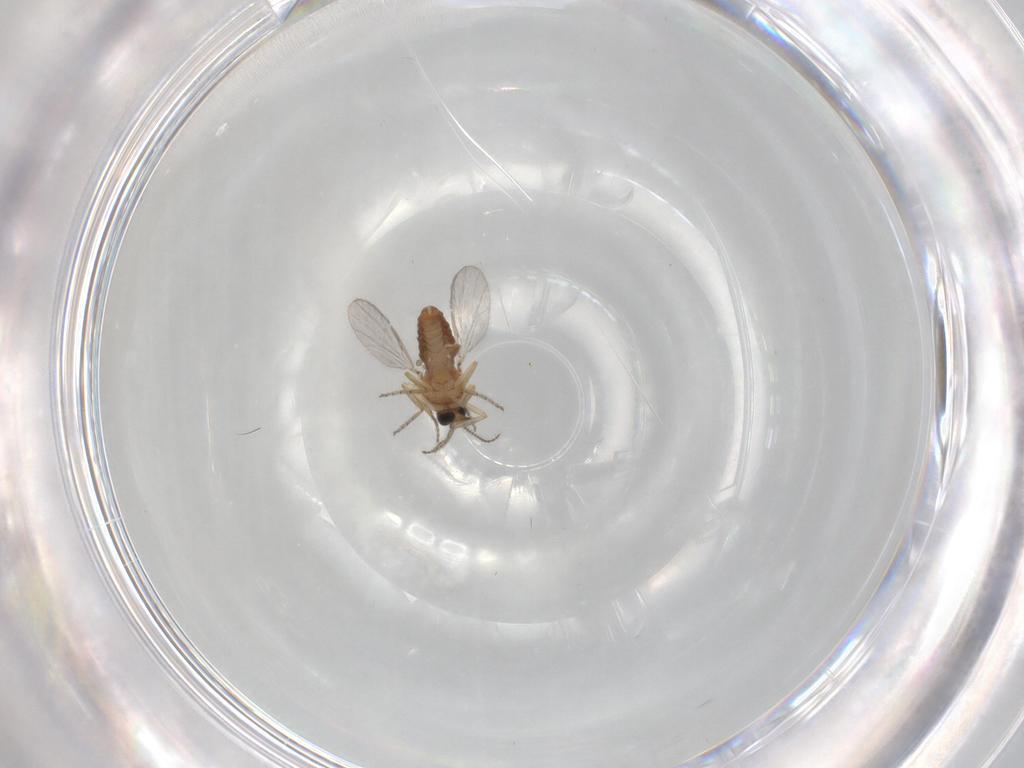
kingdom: Animalia
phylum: Arthropoda
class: Insecta
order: Diptera
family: Ceratopogonidae
